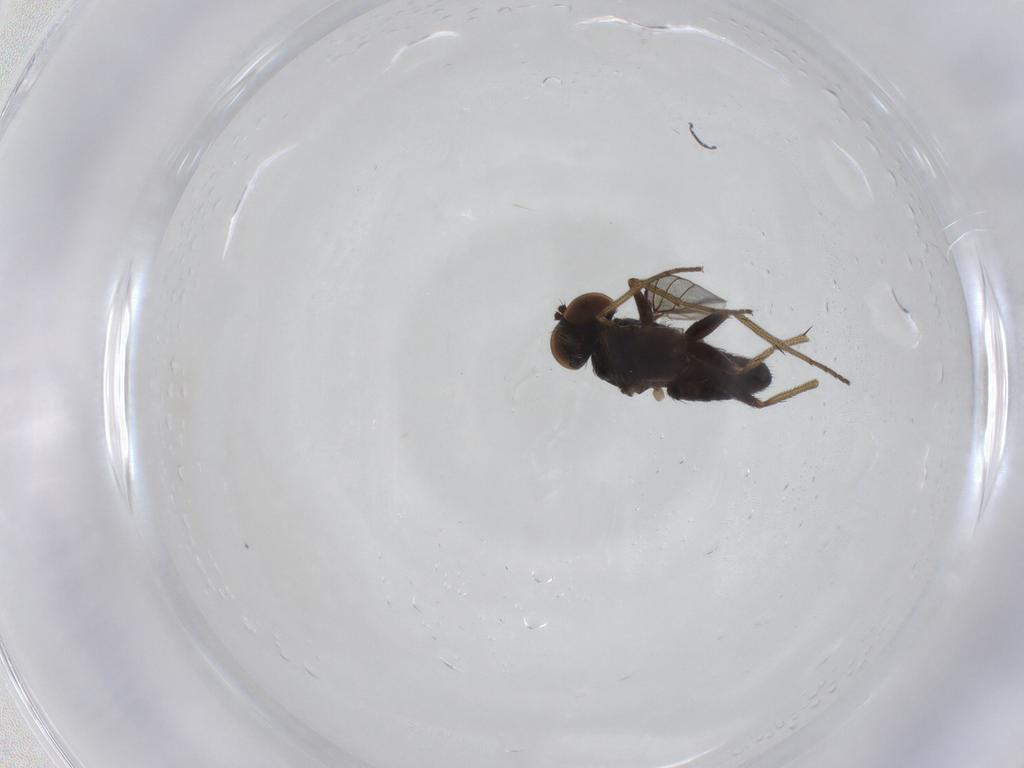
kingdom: Animalia
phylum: Arthropoda
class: Insecta
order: Diptera
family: Dolichopodidae
